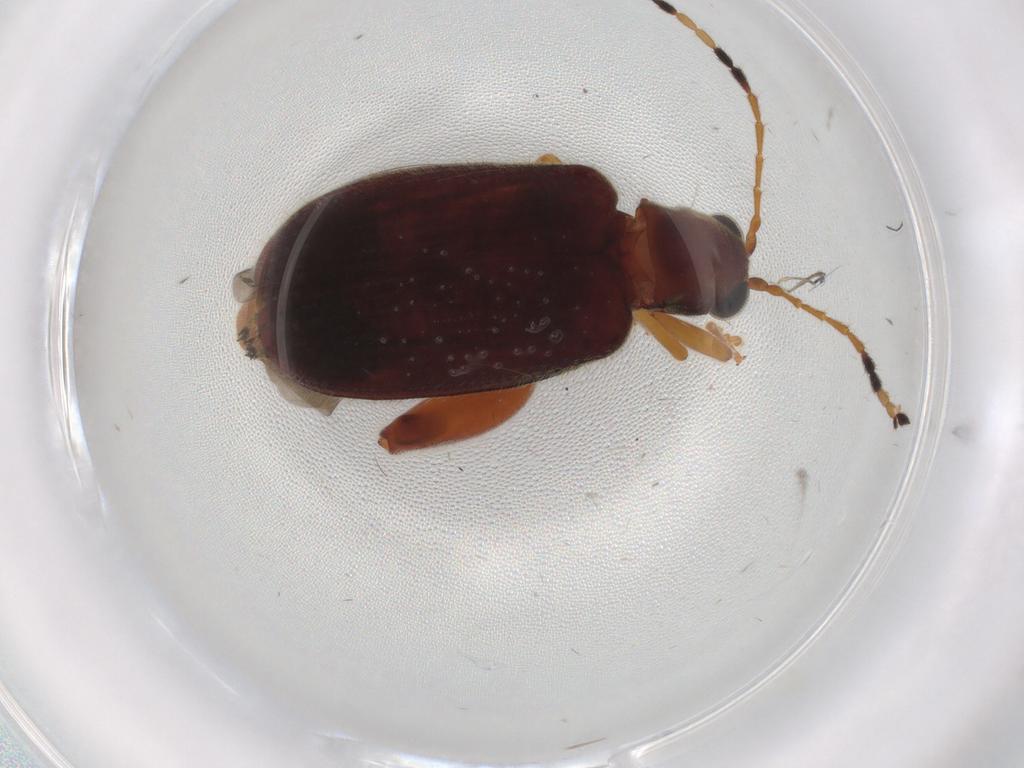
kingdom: Animalia
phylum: Arthropoda
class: Insecta
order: Coleoptera
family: Chrysomelidae
